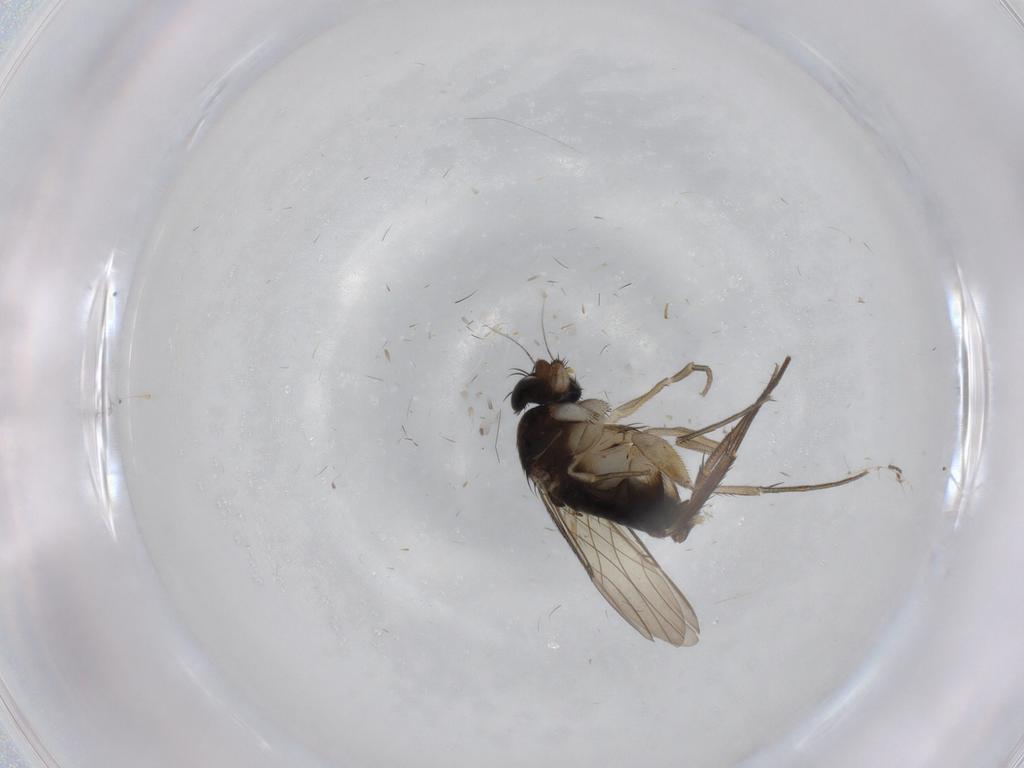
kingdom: Animalia
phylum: Arthropoda
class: Insecta
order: Diptera
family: Phoridae
